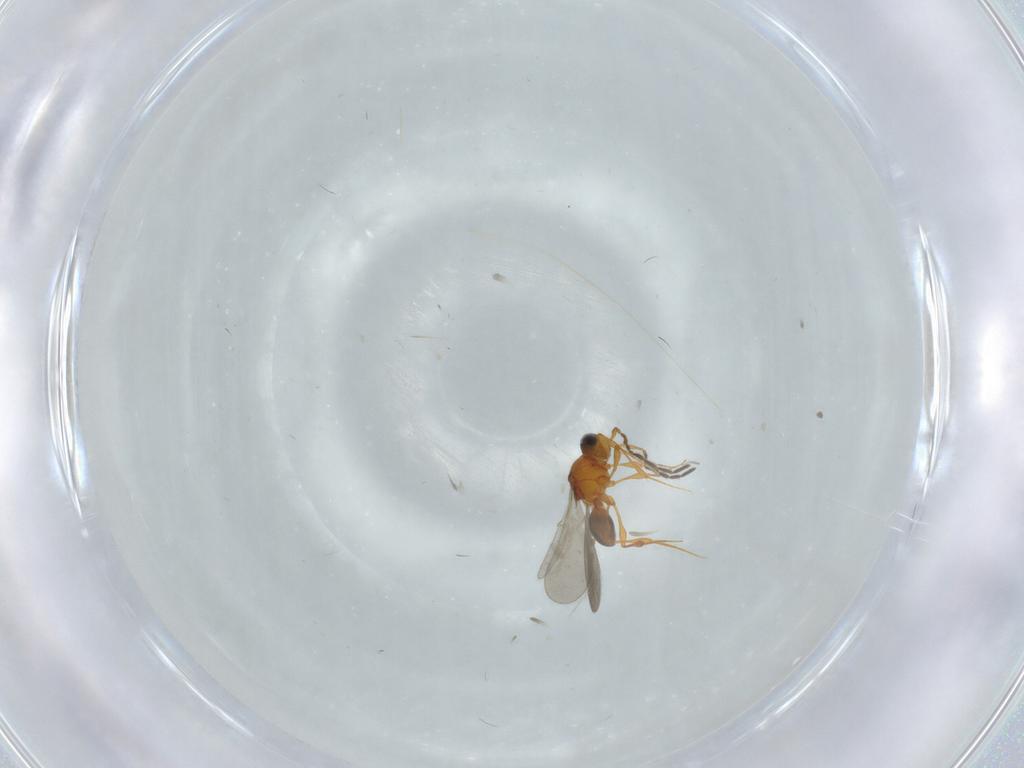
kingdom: Animalia
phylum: Arthropoda
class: Insecta
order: Hymenoptera
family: Platygastridae
